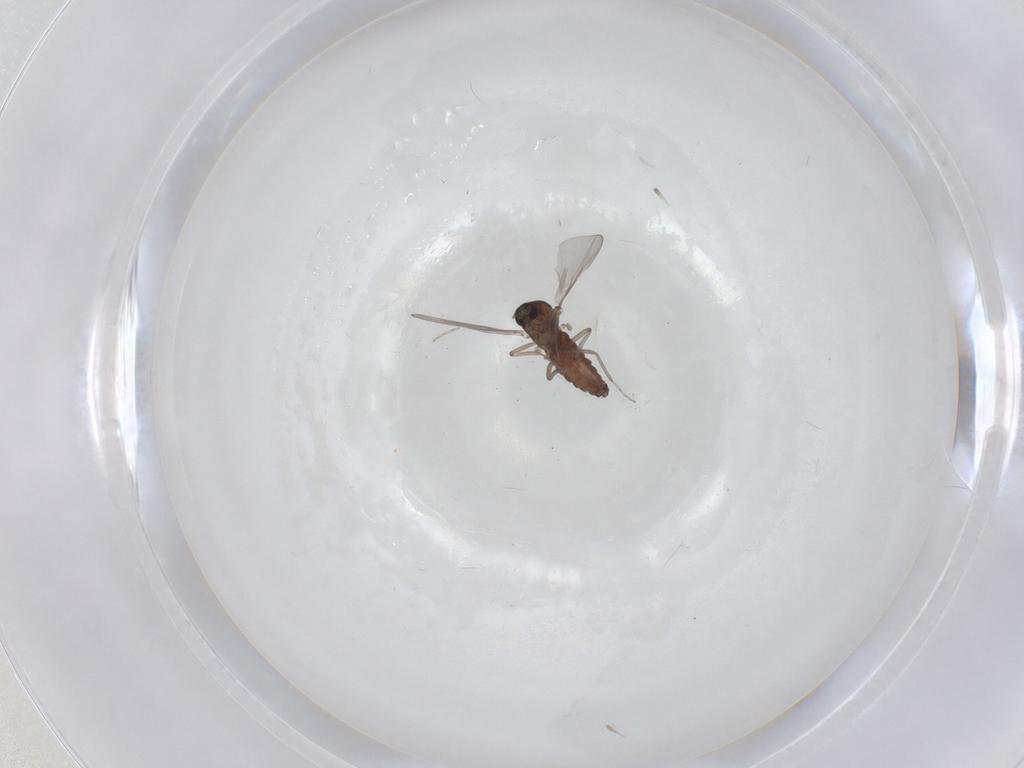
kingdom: Animalia
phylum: Arthropoda
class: Insecta
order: Diptera
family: Ceratopogonidae
